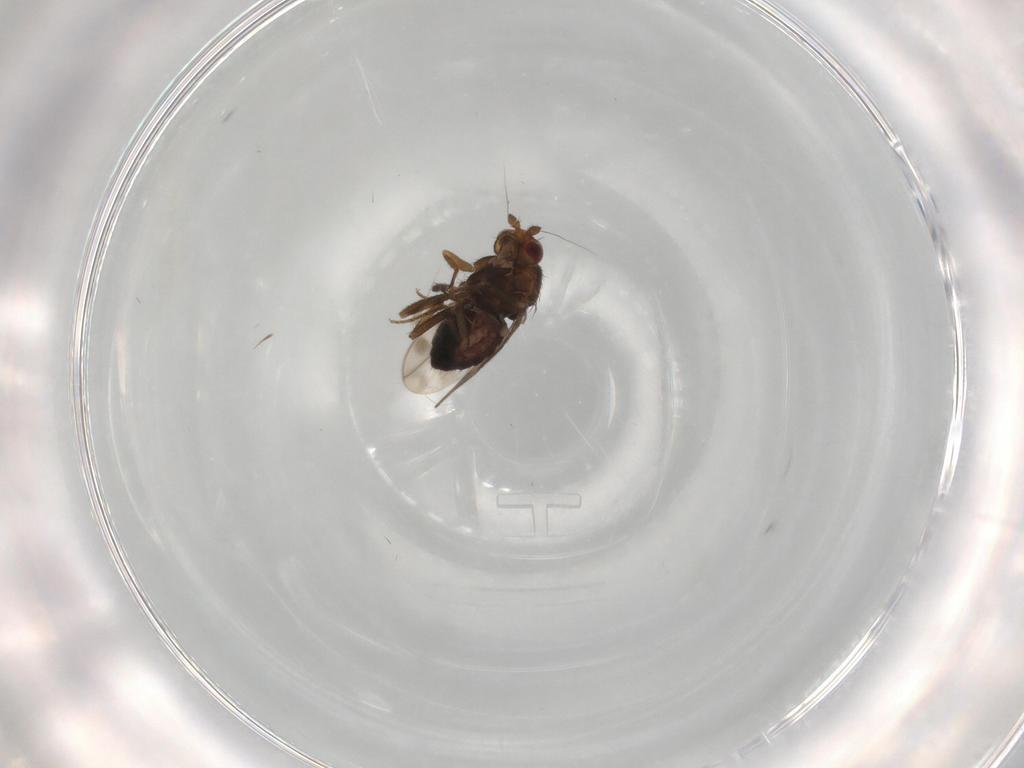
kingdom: Animalia
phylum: Arthropoda
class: Insecta
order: Diptera
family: Sphaeroceridae
